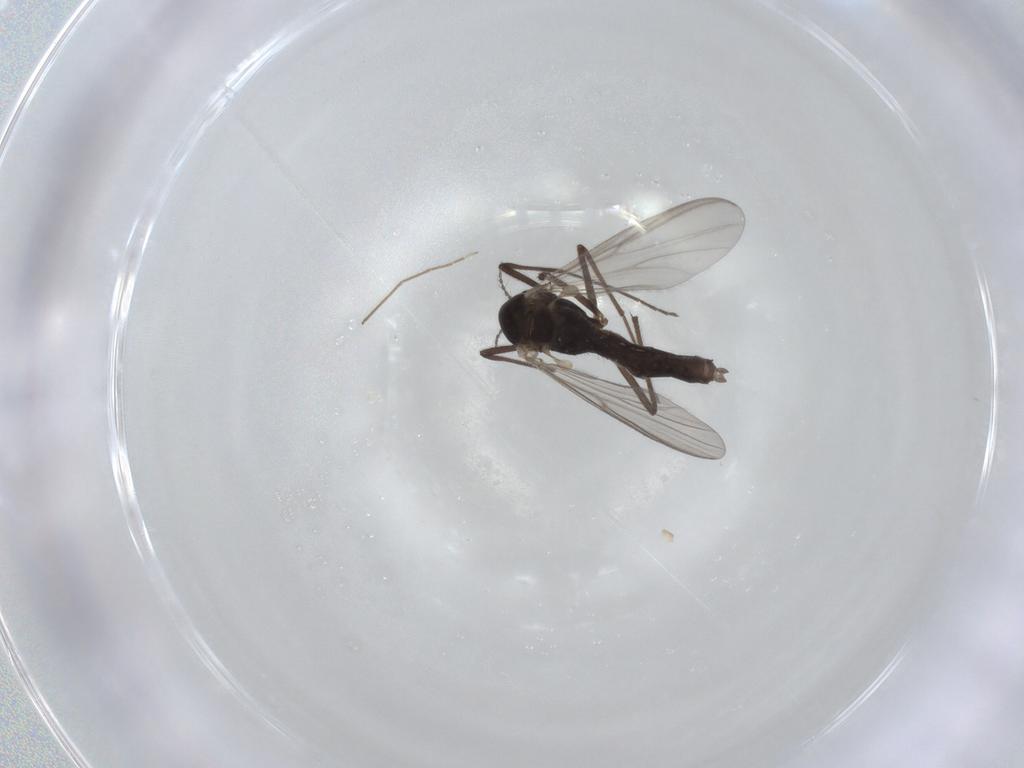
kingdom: Animalia
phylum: Arthropoda
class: Insecta
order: Diptera
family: Chironomidae
